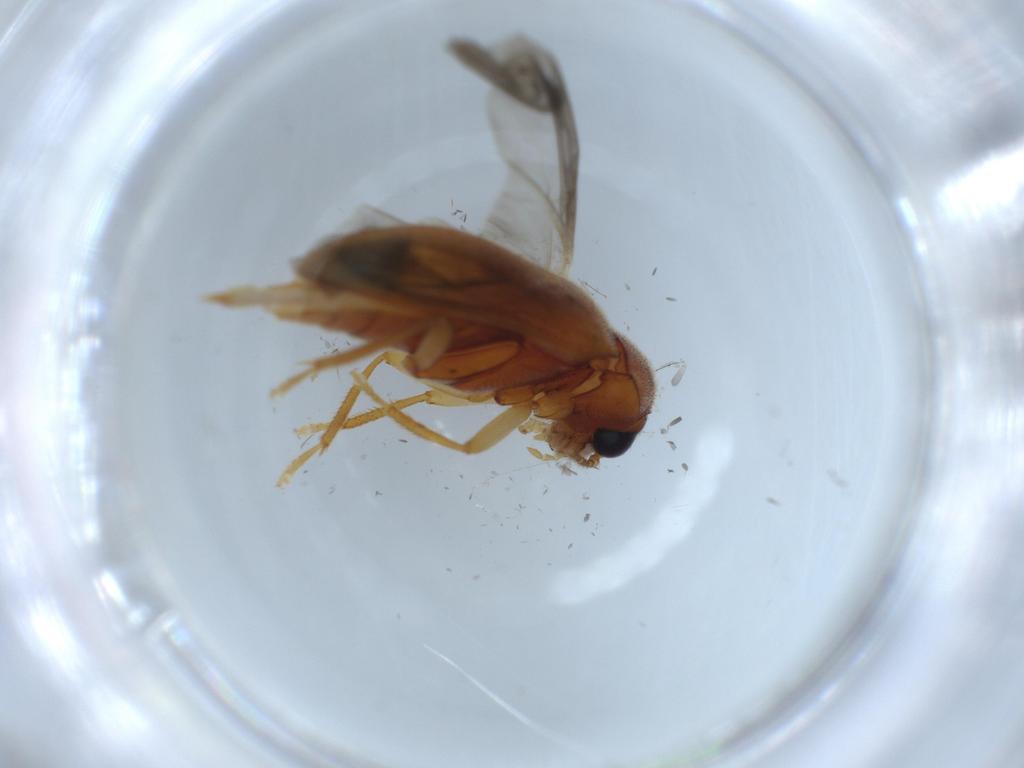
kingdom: Animalia
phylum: Arthropoda
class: Insecta
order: Coleoptera
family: Ptilodactylidae
